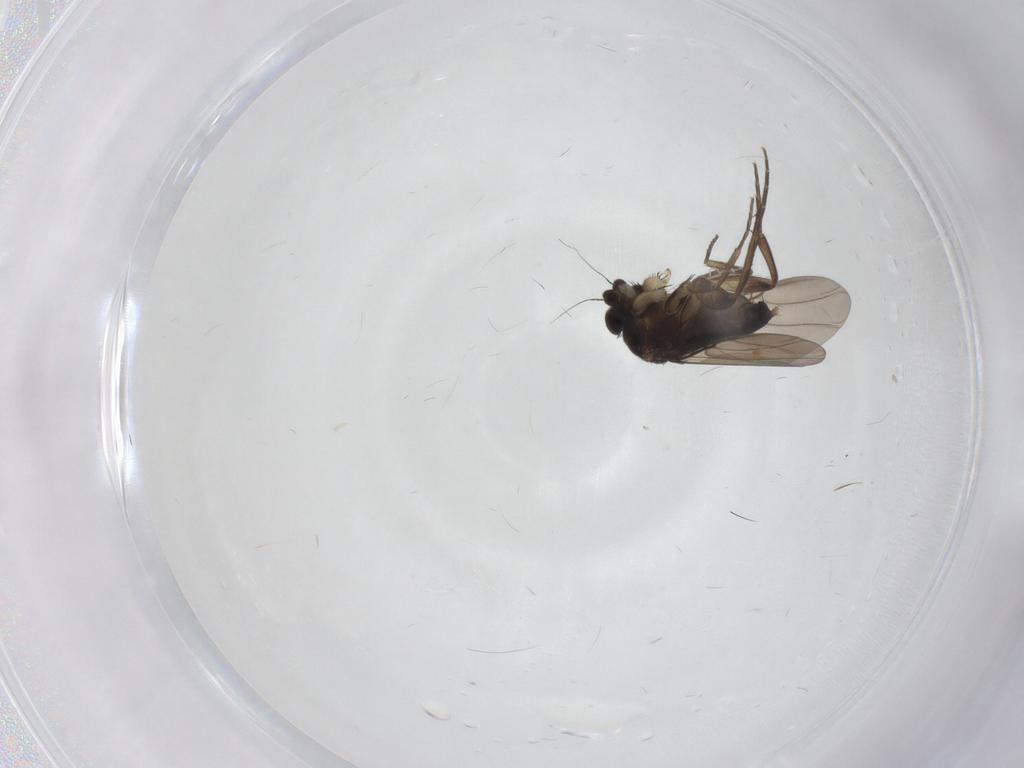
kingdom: Animalia
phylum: Arthropoda
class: Insecta
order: Diptera
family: Phoridae
